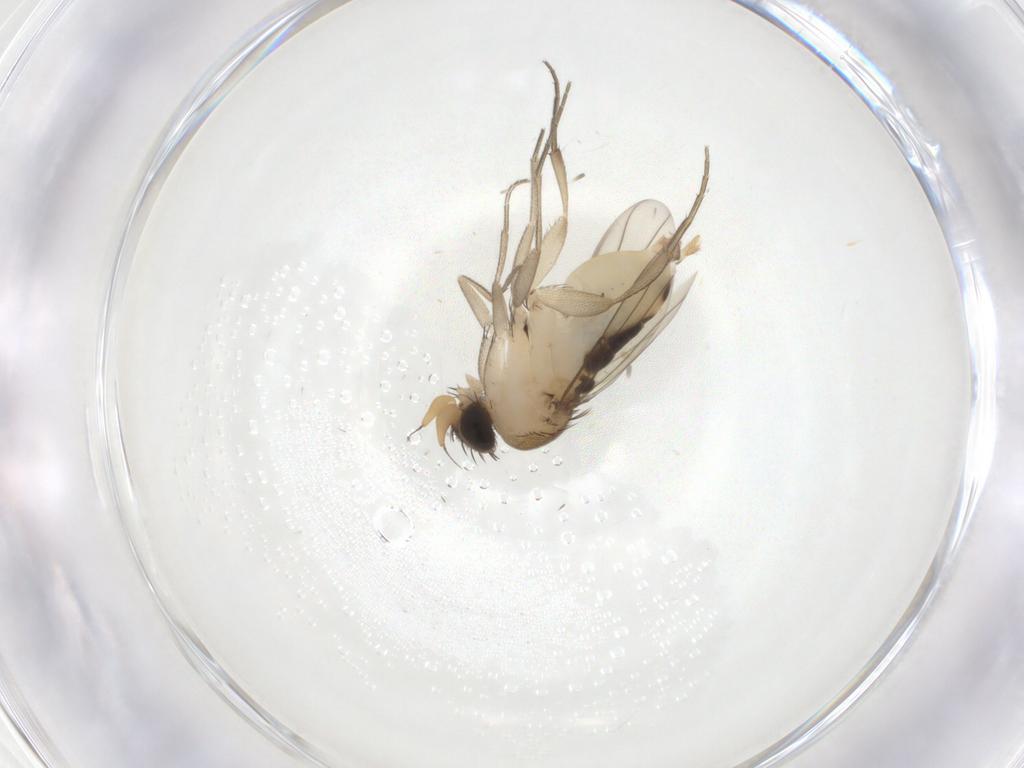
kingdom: Animalia
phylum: Arthropoda
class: Insecta
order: Diptera
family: Phoridae
